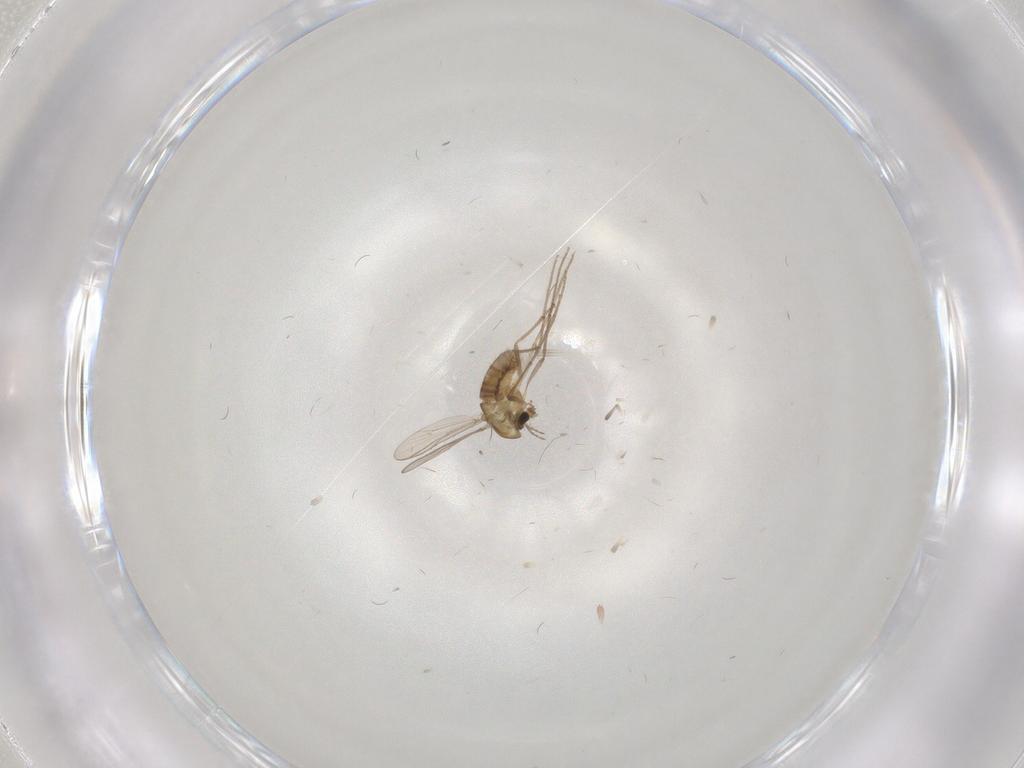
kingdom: Animalia
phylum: Arthropoda
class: Insecta
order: Diptera
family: Chironomidae
